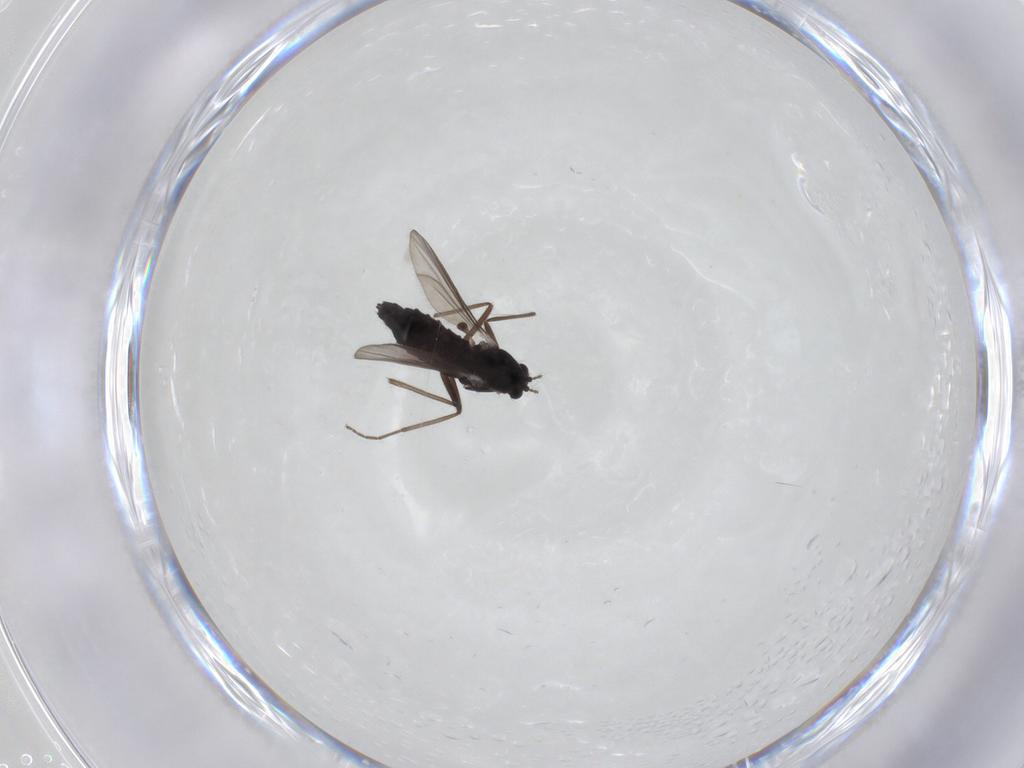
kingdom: Animalia
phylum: Arthropoda
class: Insecta
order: Diptera
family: Chironomidae
